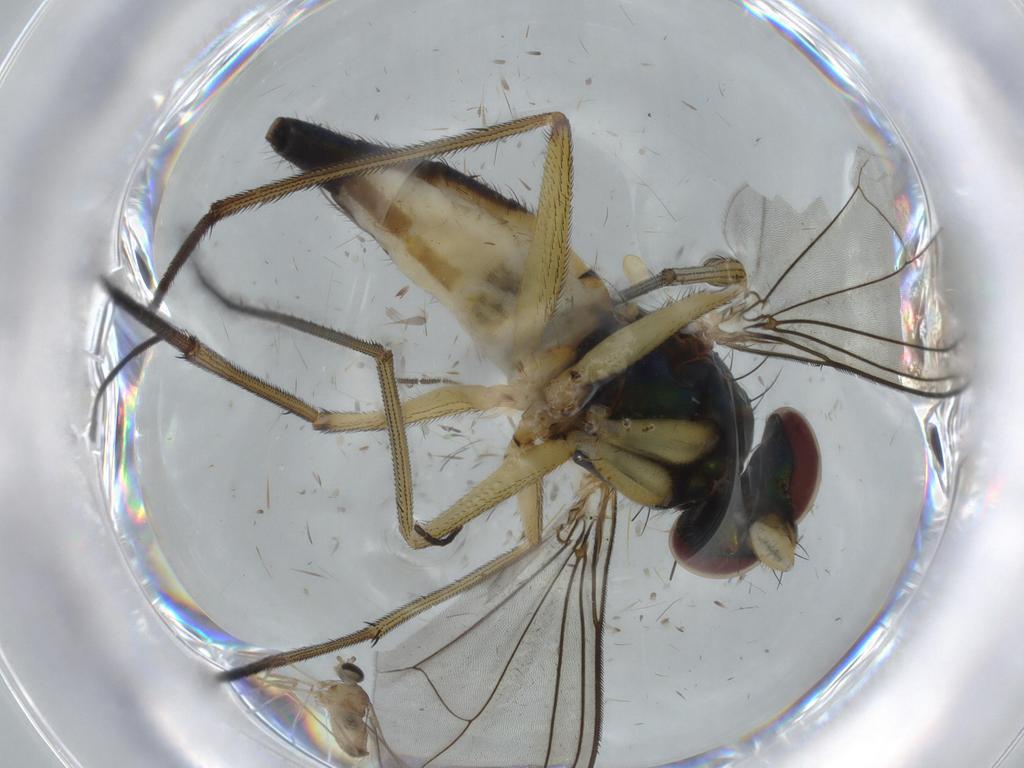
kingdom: Animalia
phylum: Arthropoda
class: Insecta
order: Diptera
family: Dolichopodidae
